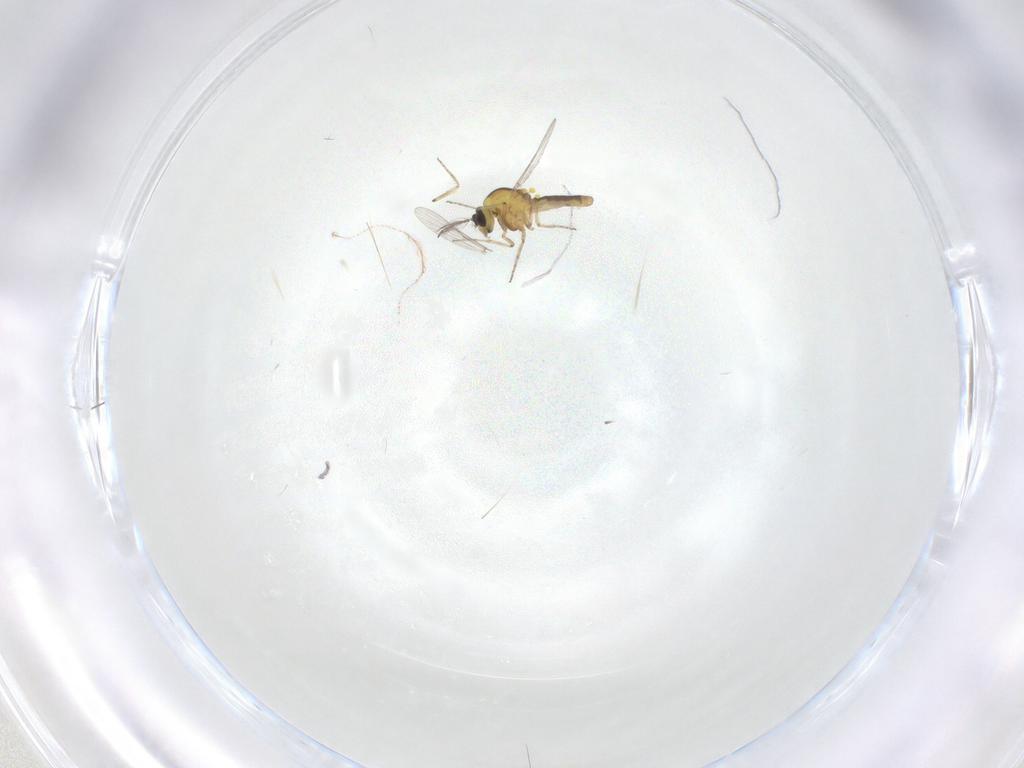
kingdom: Animalia
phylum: Arthropoda
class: Insecta
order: Diptera
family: Ceratopogonidae
